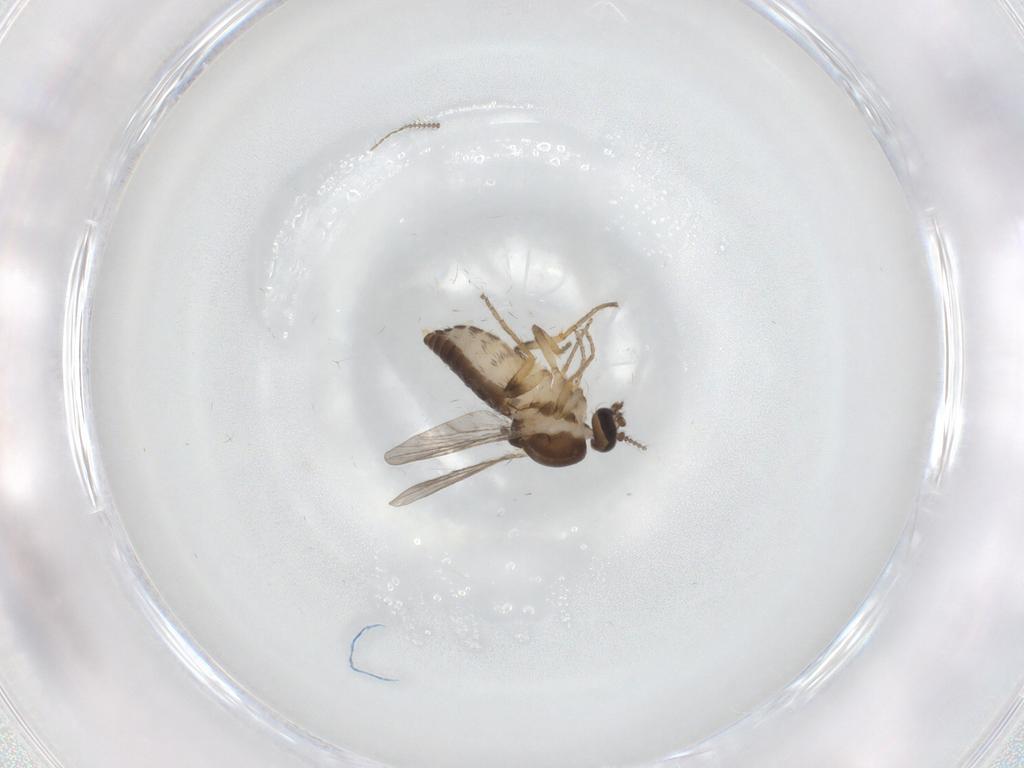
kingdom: Animalia
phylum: Arthropoda
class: Insecta
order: Diptera
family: Ceratopogonidae
